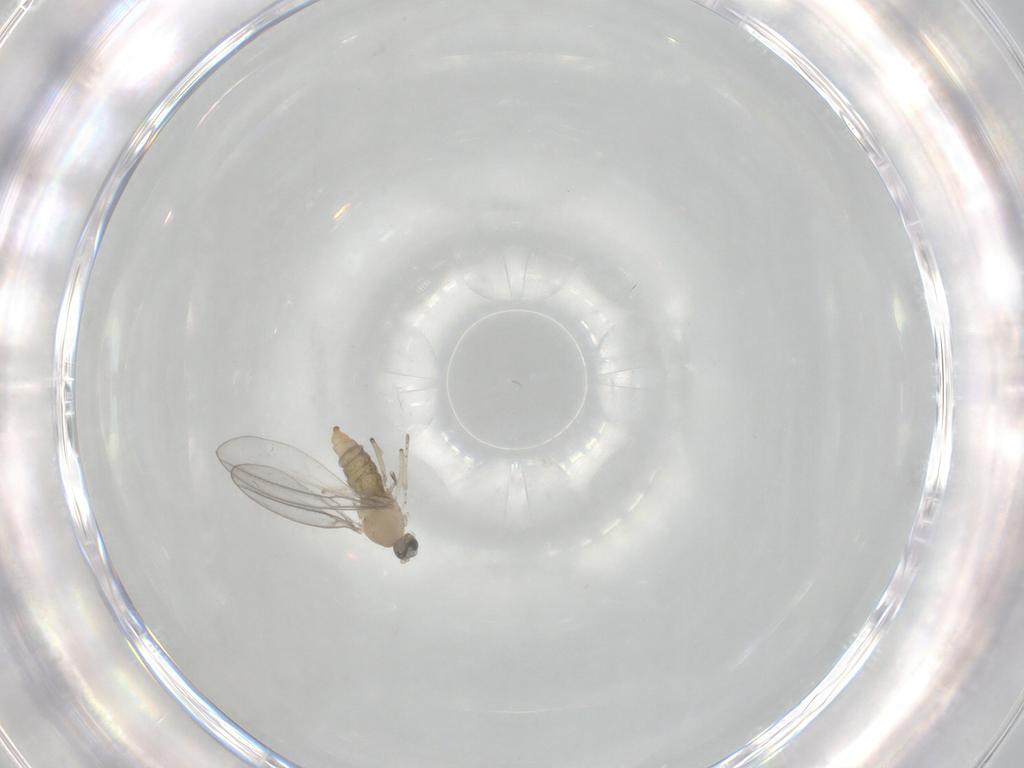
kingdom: Animalia
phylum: Arthropoda
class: Insecta
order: Diptera
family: Cecidomyiidae
